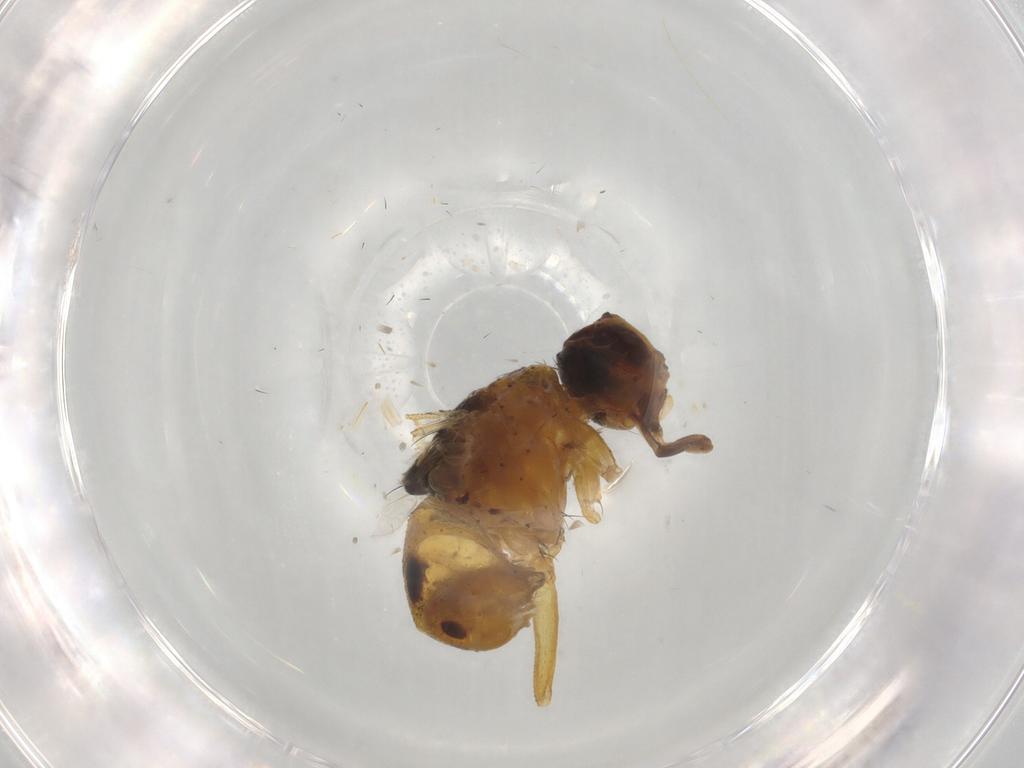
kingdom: Animalia
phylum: Arthropoda
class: Insecta
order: Diptera
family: Muscidae
